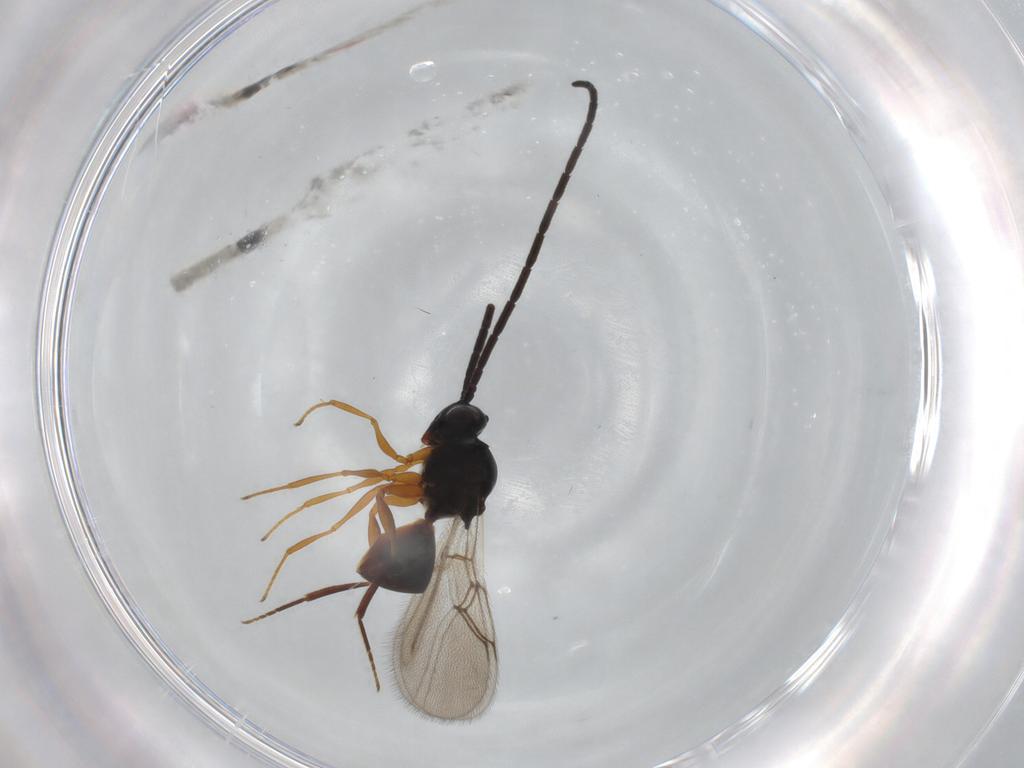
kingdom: Animalia
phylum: Arthropoda
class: Insecta
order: Hymenoptera
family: Figitidae
